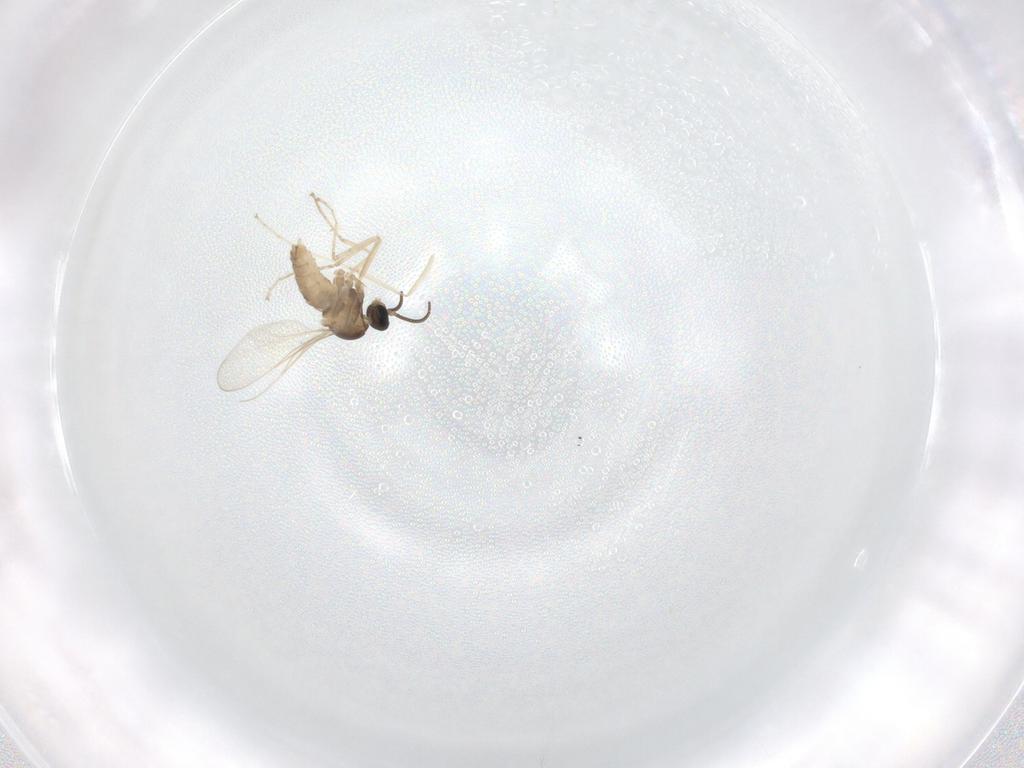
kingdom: Animalia
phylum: Arthropoda
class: Insecta
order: Diptera
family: Cecidomyiidae
